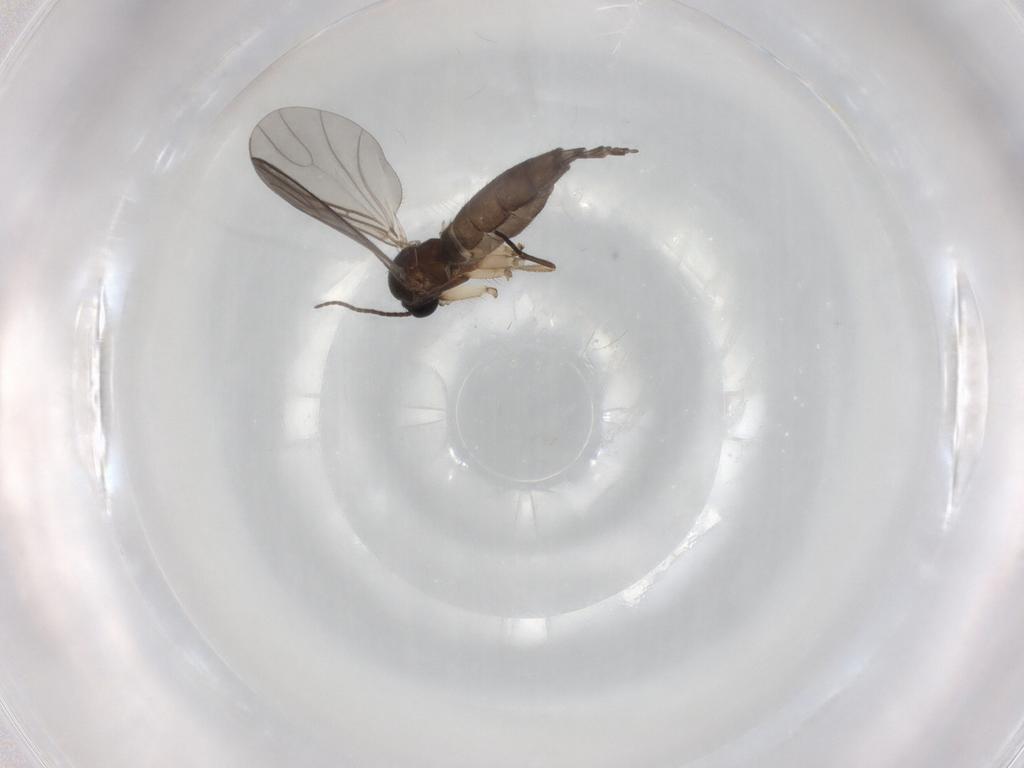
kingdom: Animalia
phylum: Arthropoda
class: Insecta
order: Diptera
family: Sciaridae
